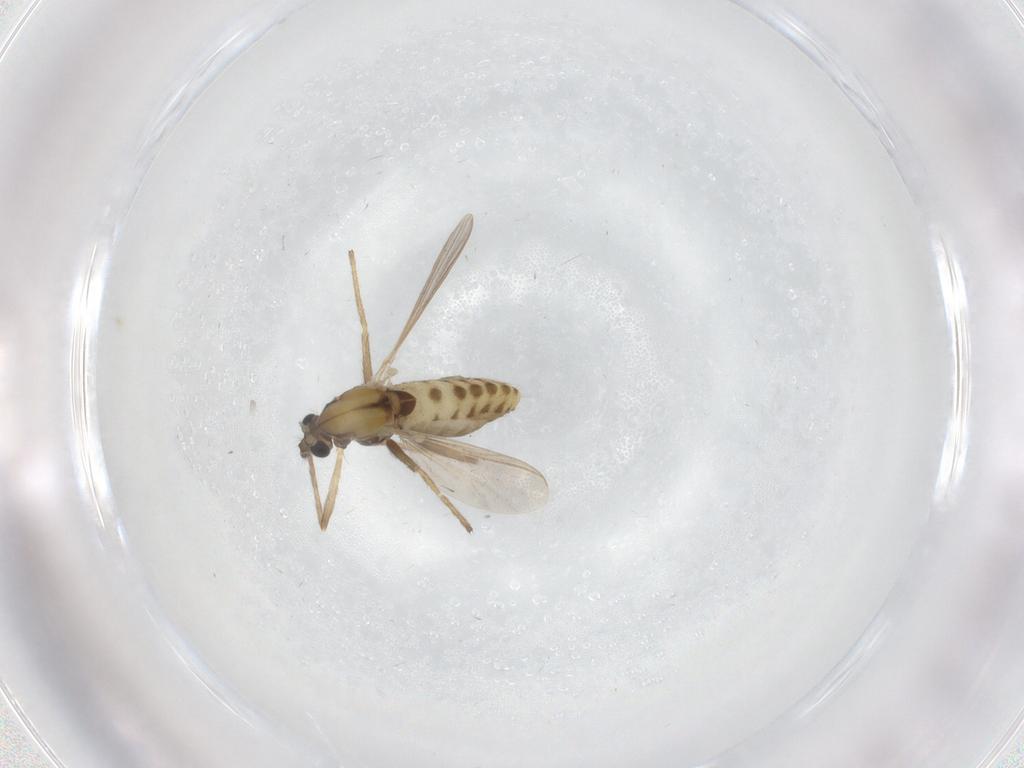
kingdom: Animalia
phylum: Arthropoda
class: Insecta
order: Diptera
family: Chironomidae
